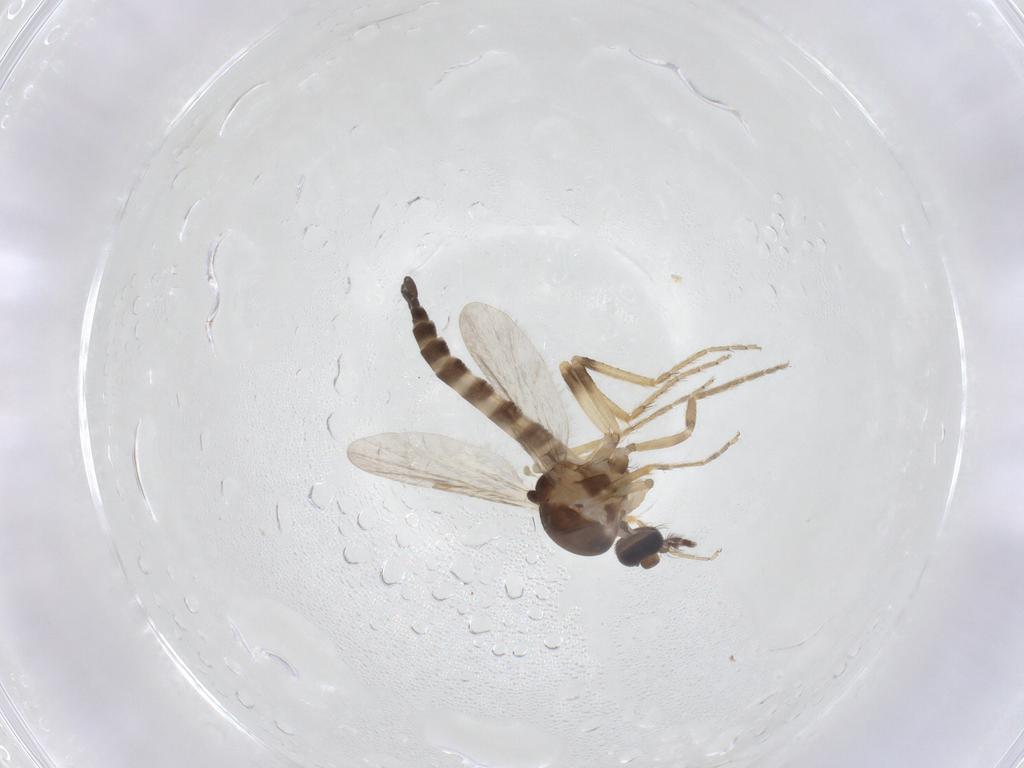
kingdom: Animalia
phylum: Arthropoda
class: Insecta
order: Diptera
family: Ceratopogonidae
